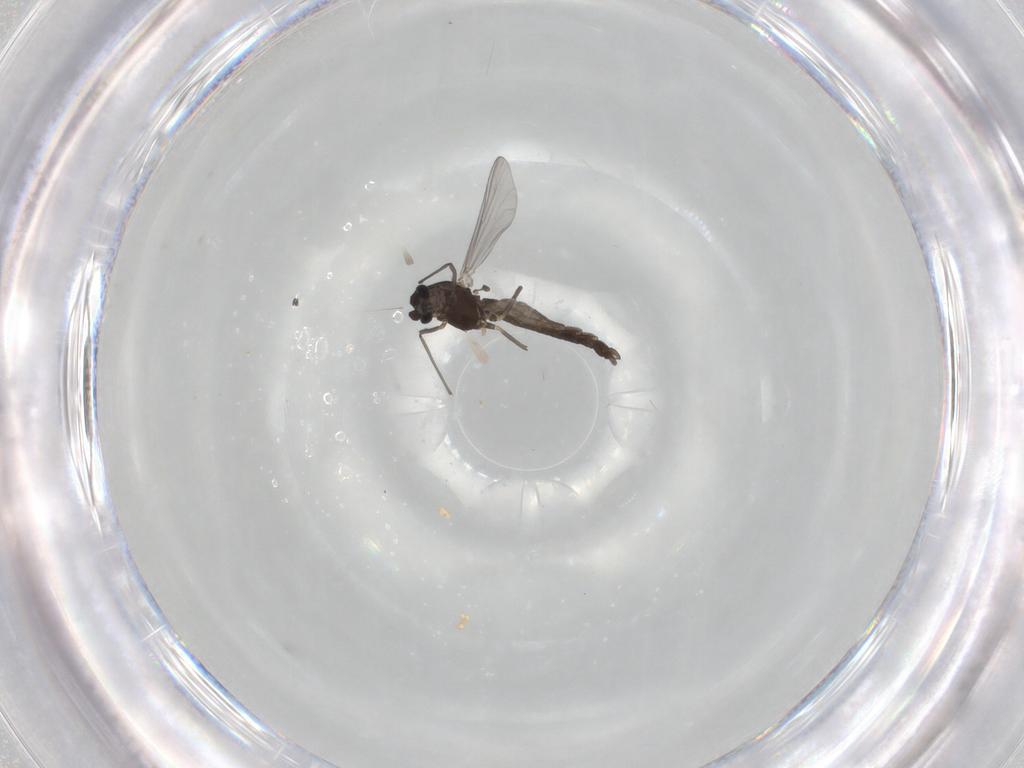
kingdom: Animalia
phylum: Arthropoda
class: Insecta
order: Diptera
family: Chironomidae
